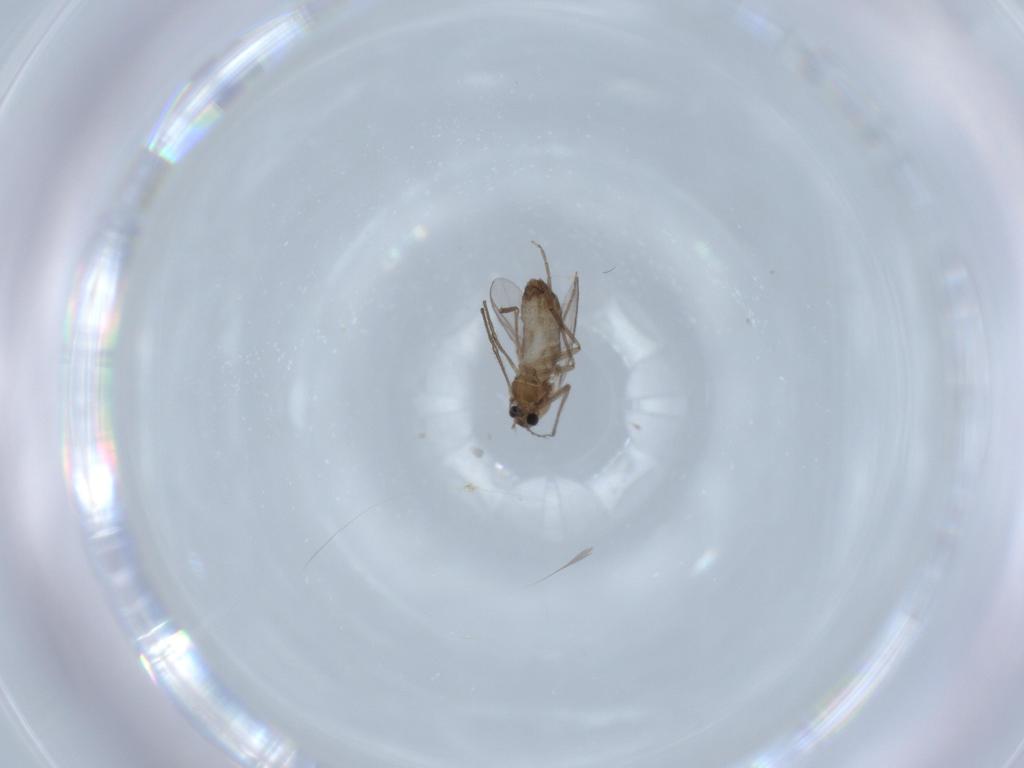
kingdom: Animalia
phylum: Arthropoda
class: Insecta
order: Diptera
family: Chironomidae
